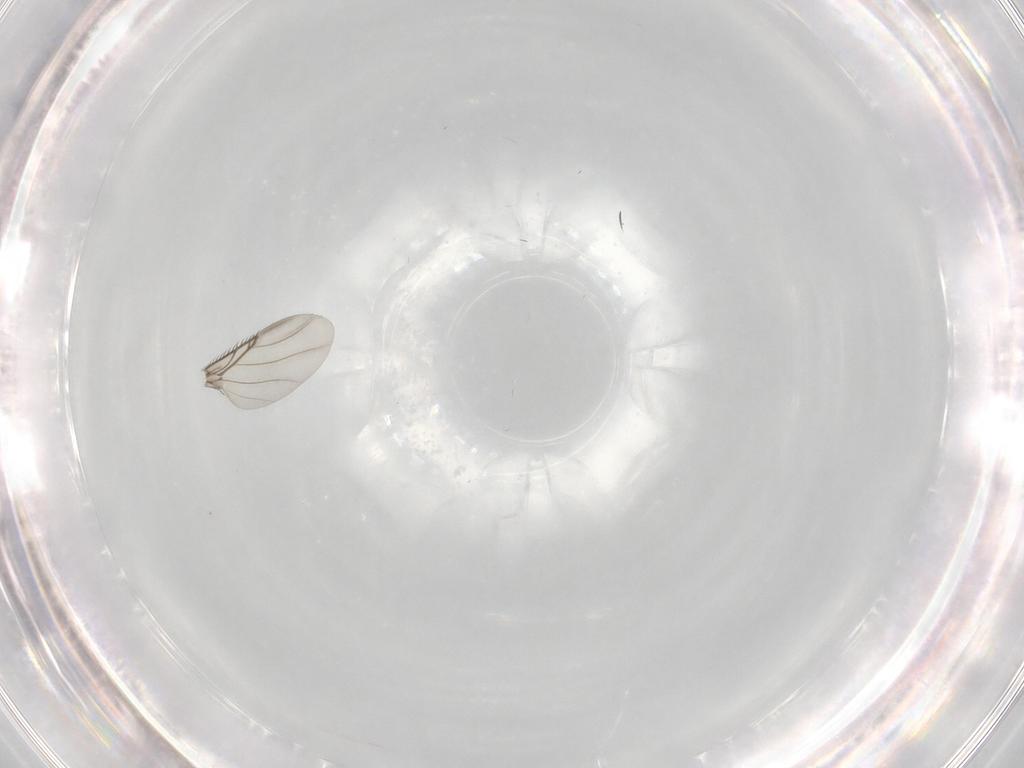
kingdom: Animalia
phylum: Arthropoda
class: Insecta
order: Diptera
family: Phoridae
